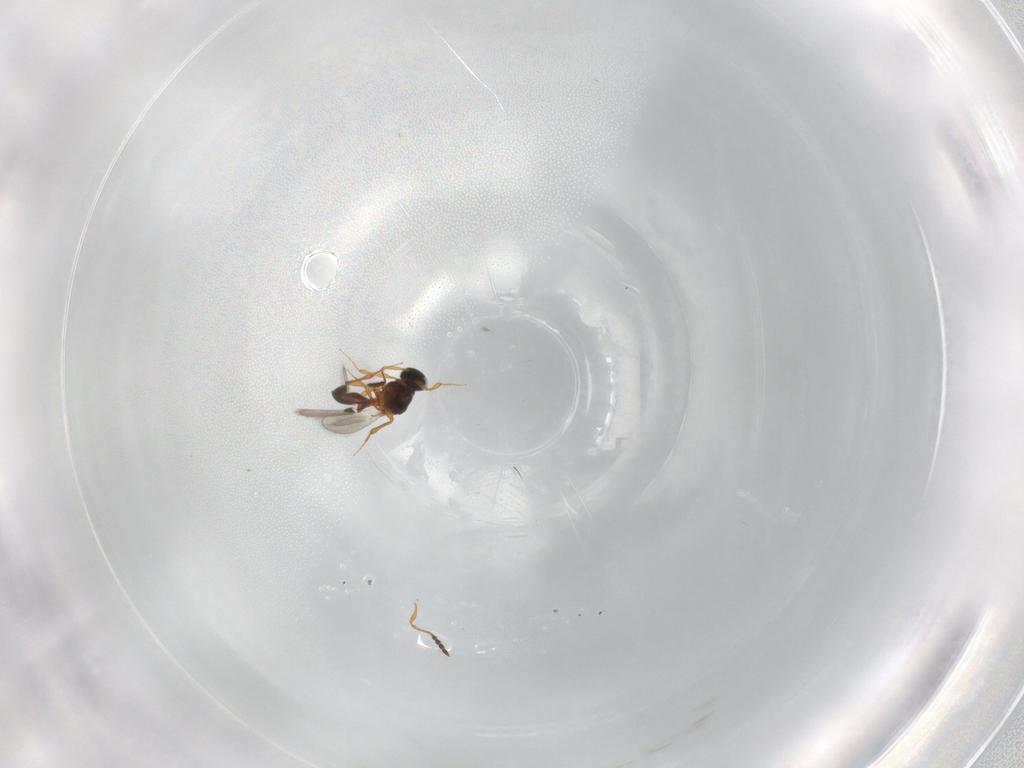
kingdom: Animalia
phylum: Arthropoda
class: Insecta
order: Hymenoptera
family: Platygastridae
